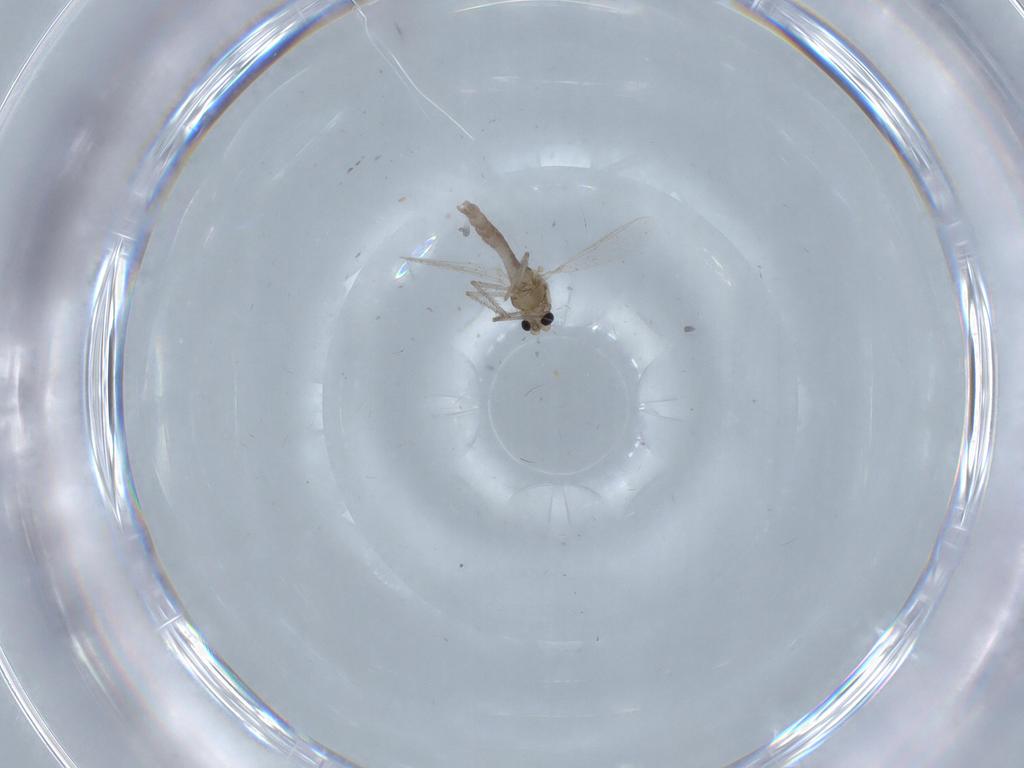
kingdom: Animalia
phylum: Arthropoda
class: Insecta
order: Diptera
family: Chironomidae
